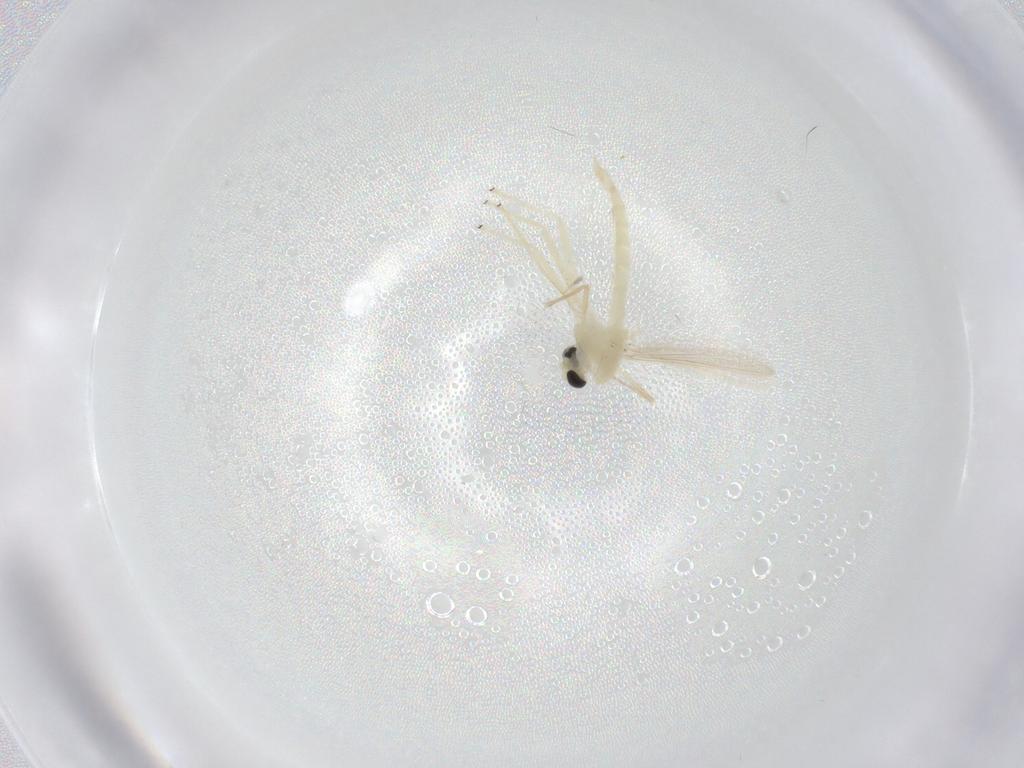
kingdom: Animalia
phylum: Arthropoda
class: Insecta
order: Diptera
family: Chironomidae
